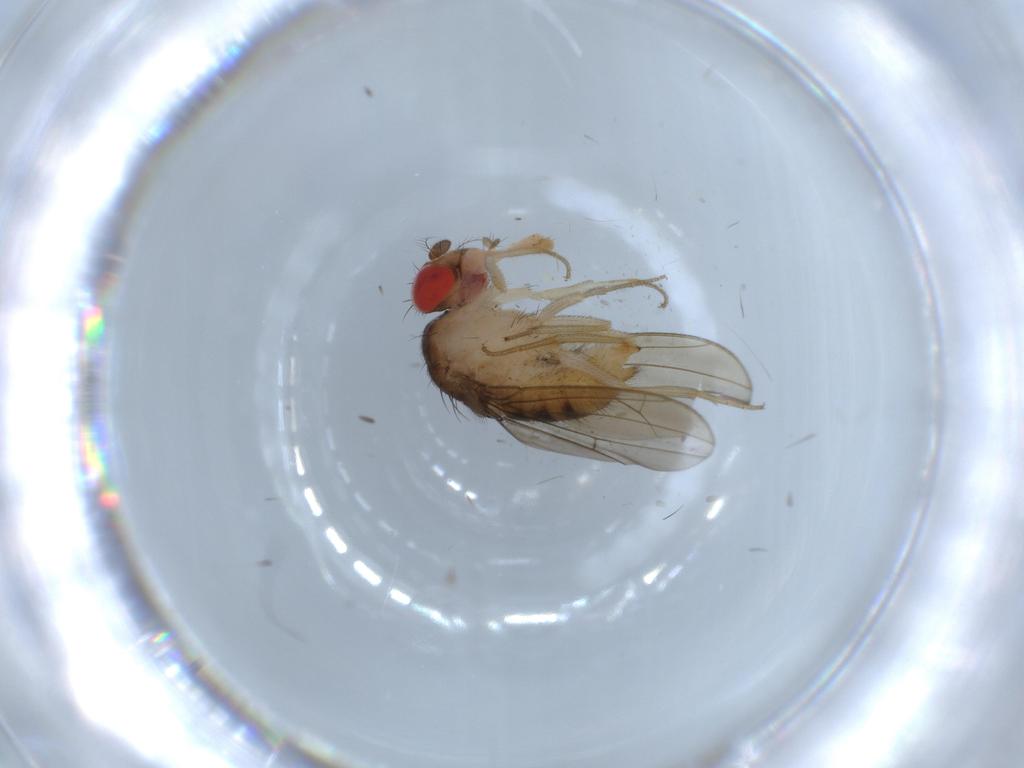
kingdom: Animalia
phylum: Arthropoda
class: Insecta
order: Diptera
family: Drosophilidae
